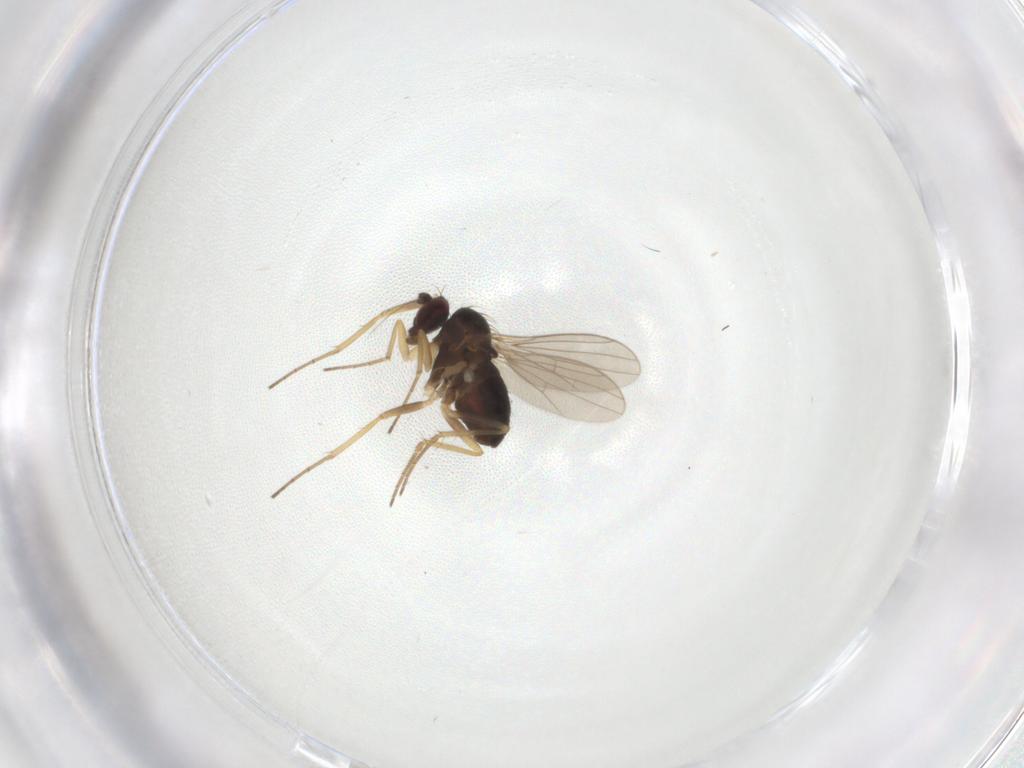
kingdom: Animalia
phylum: Arthropoda
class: Insecta
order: Diptera
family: Dolichopodidae
